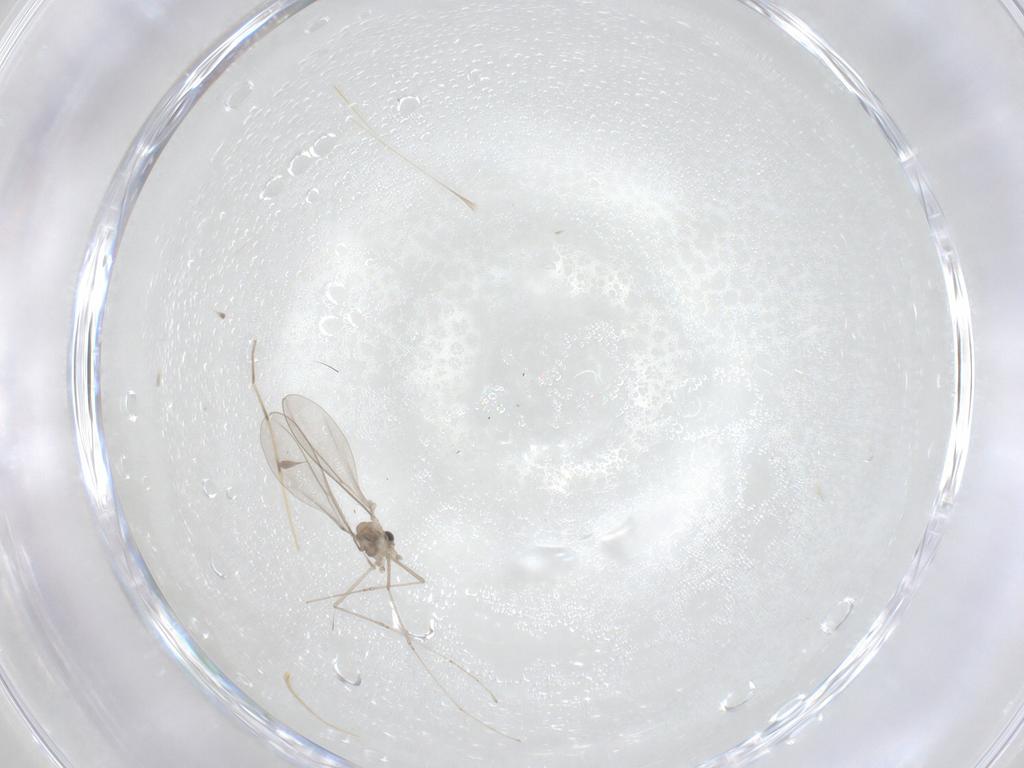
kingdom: Animalia
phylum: Arthropoda
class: Insecta
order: Diptera
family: Cecidomyiidae
